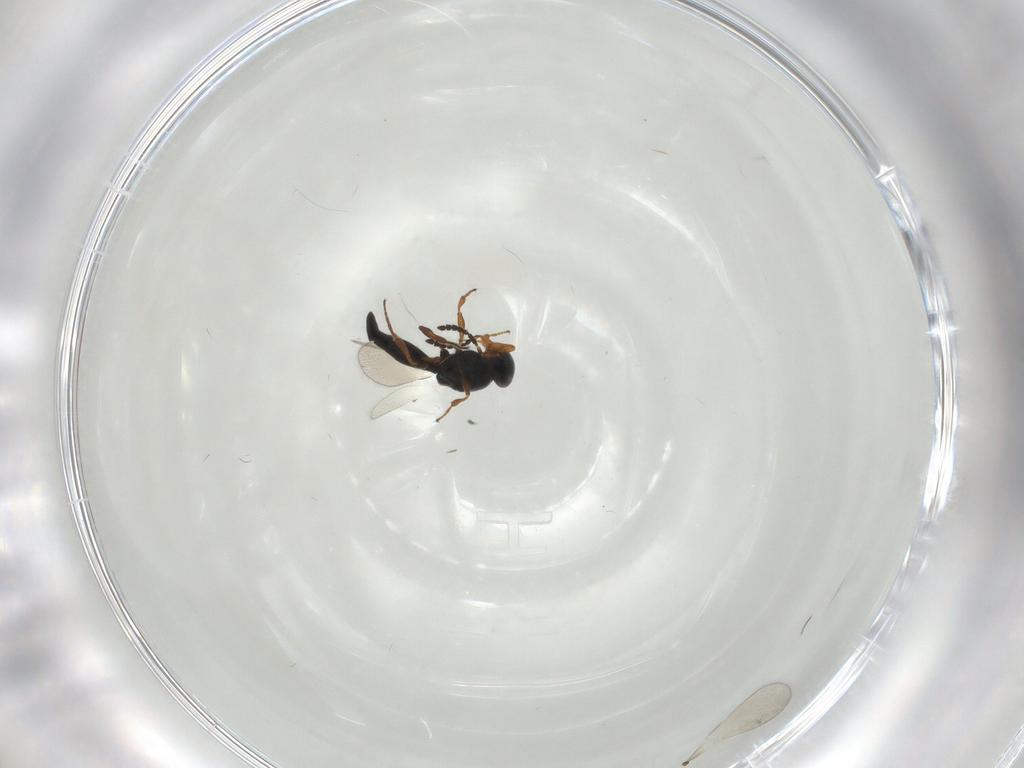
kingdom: Animalia
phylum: Arthropoda
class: Insecta
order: Hymenoptera
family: Platygastridae
